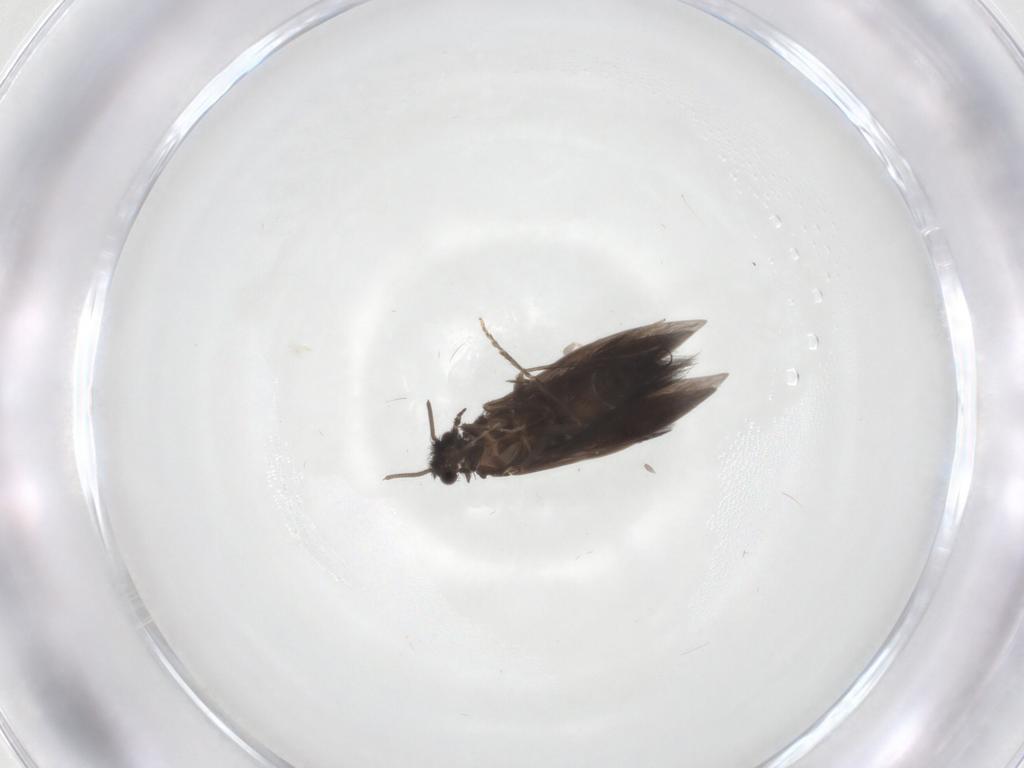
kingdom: Animalia
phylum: Arthropoda
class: Insecta
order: Trichoptera
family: Hydroptilidae
